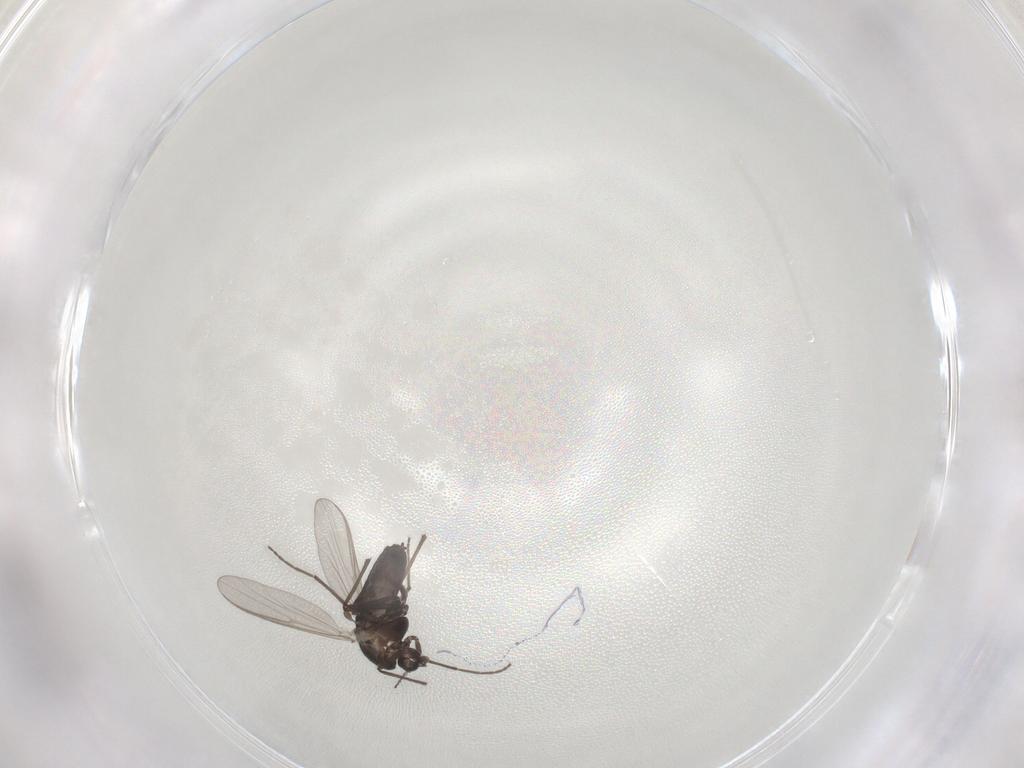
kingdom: Animalia
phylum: Arthropoda
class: Insecta
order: Diptera
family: Chironomidae
